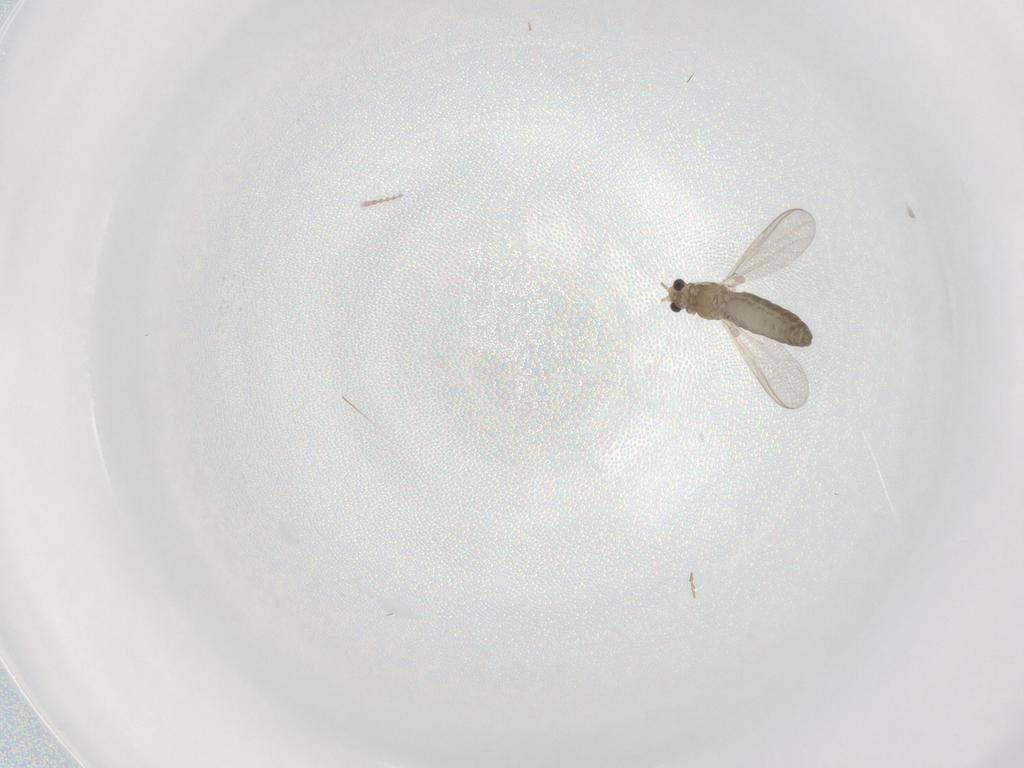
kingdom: Animalia
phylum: Arthropoda
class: Insecta
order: Diptera
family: Chironomidae
